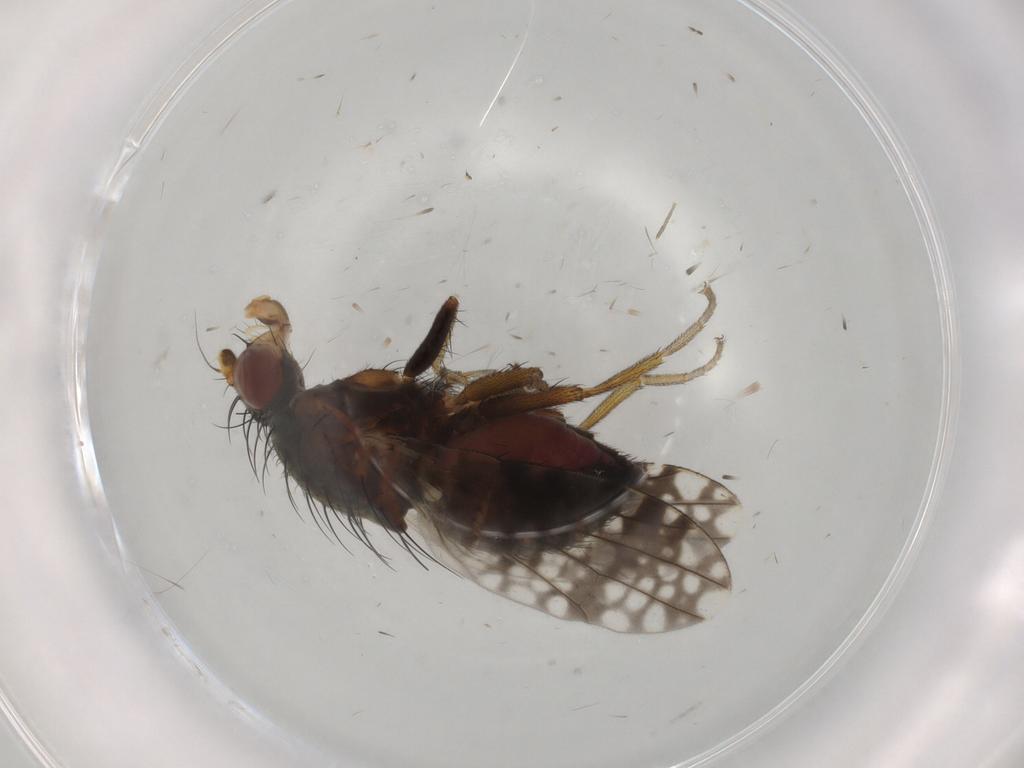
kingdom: Animalia
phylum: Arthropoda
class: Insecta
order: Diptera
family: Tephritidae
